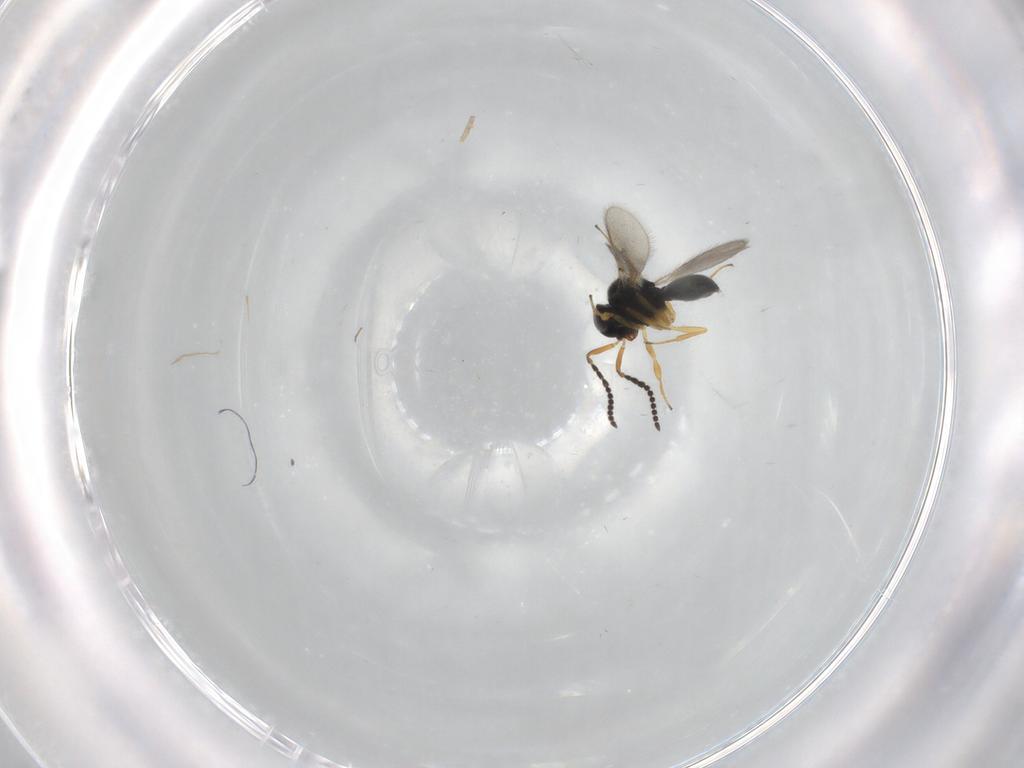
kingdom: Animalia
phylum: Arthropoda
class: Insecta
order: Hymenoptera
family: Scelionidae
